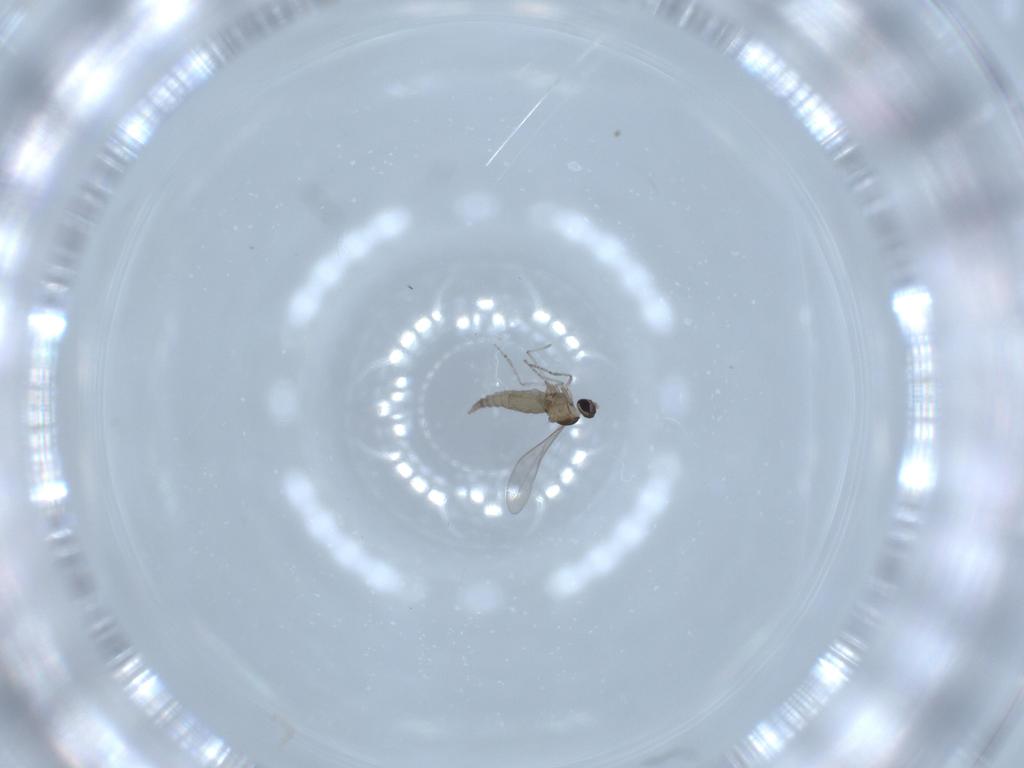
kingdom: Animalia
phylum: Arthropoda
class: Insecta
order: Diptera
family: Cecidomyiidae
